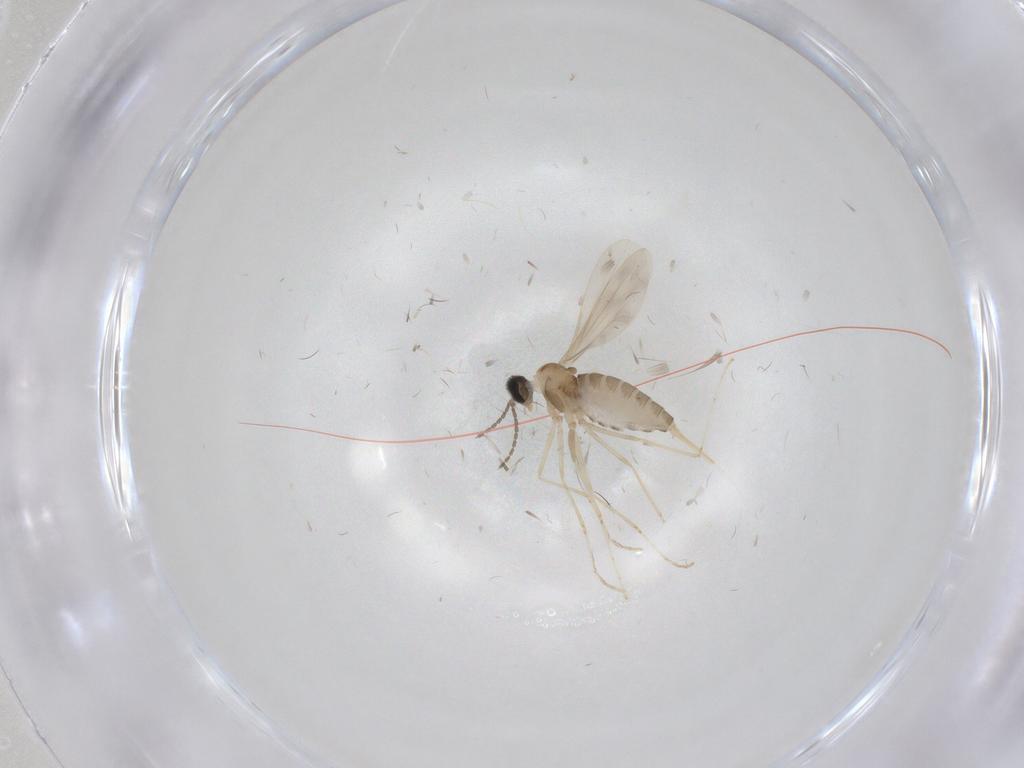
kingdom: Animalia
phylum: Arthropoda
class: Insecta
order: Diptera
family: Cecidomyiidae
